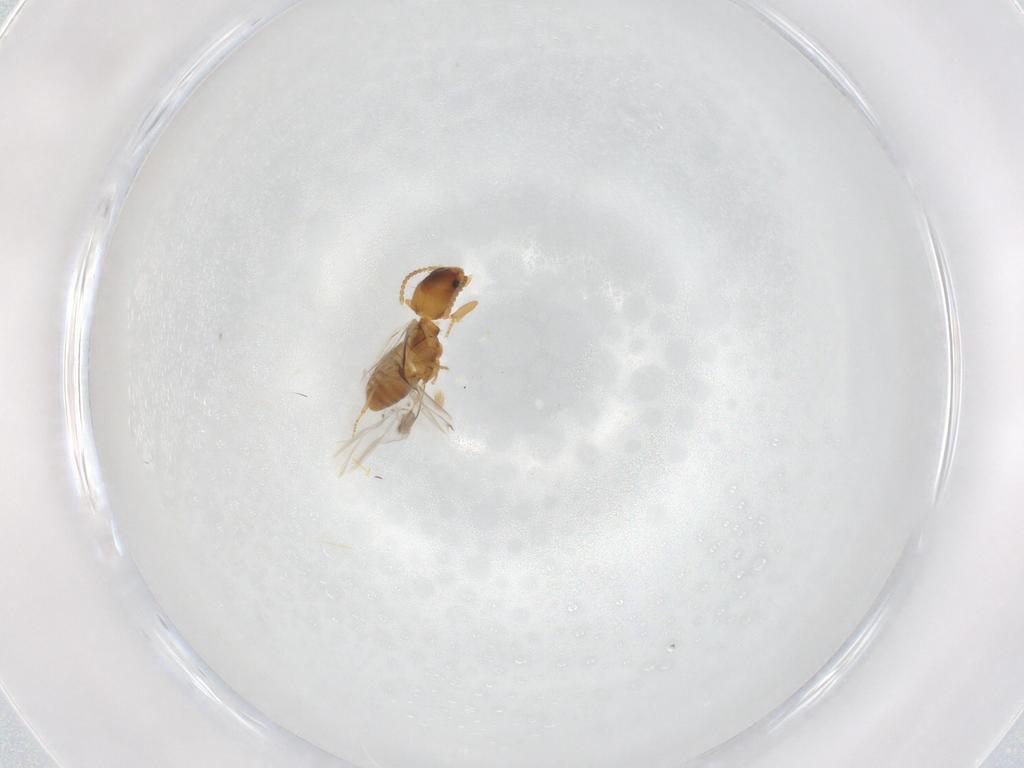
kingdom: Animalia
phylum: Arthropoda
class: Insecta
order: Coleoptera
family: Carabidae
